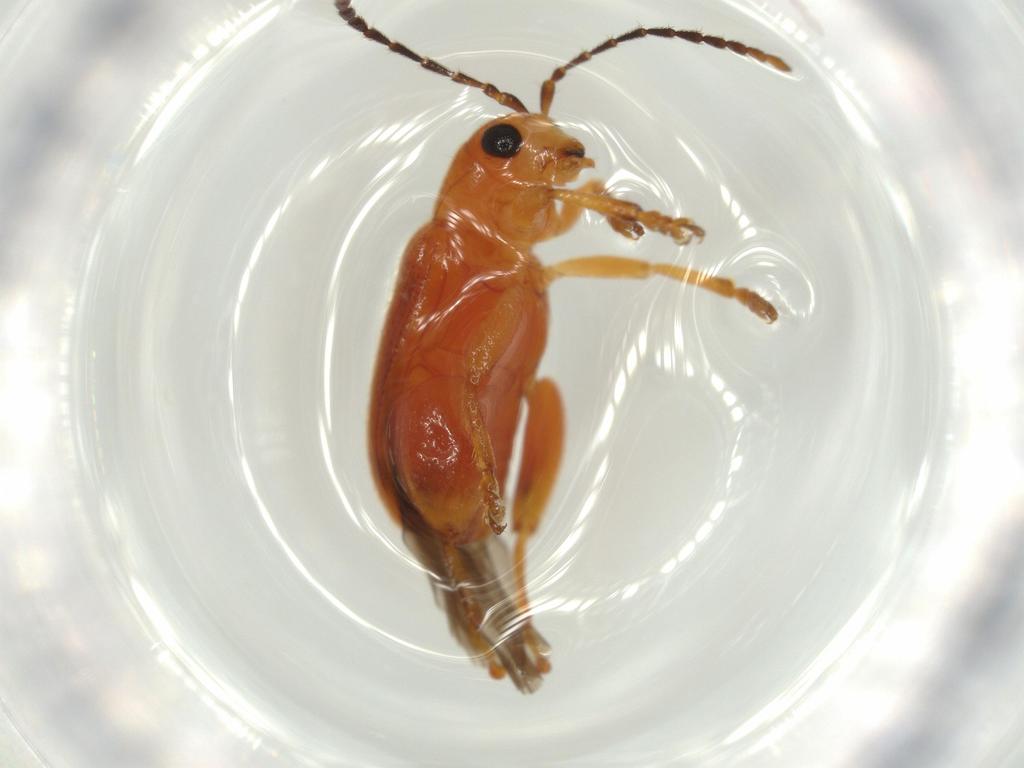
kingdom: Animalia
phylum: Arthropoda
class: Insecta
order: Coleoptera
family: Chrysomelidae
